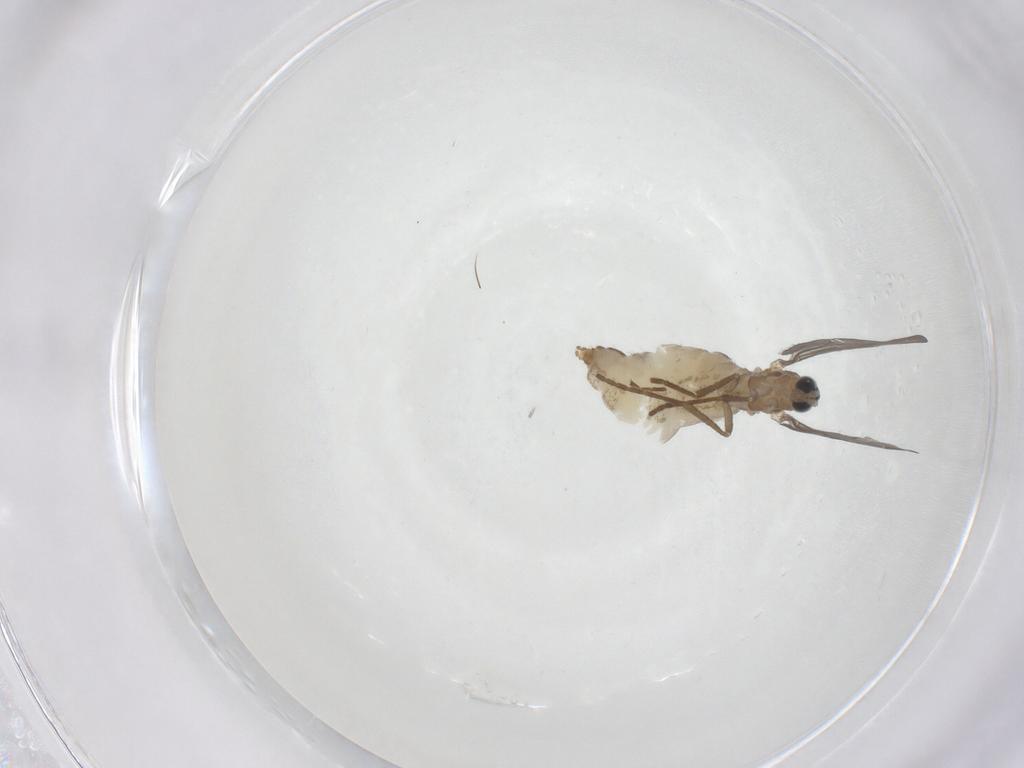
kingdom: Animalia
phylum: Arthropoda
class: Insecta
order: Diptera
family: Cecidomyiidae
